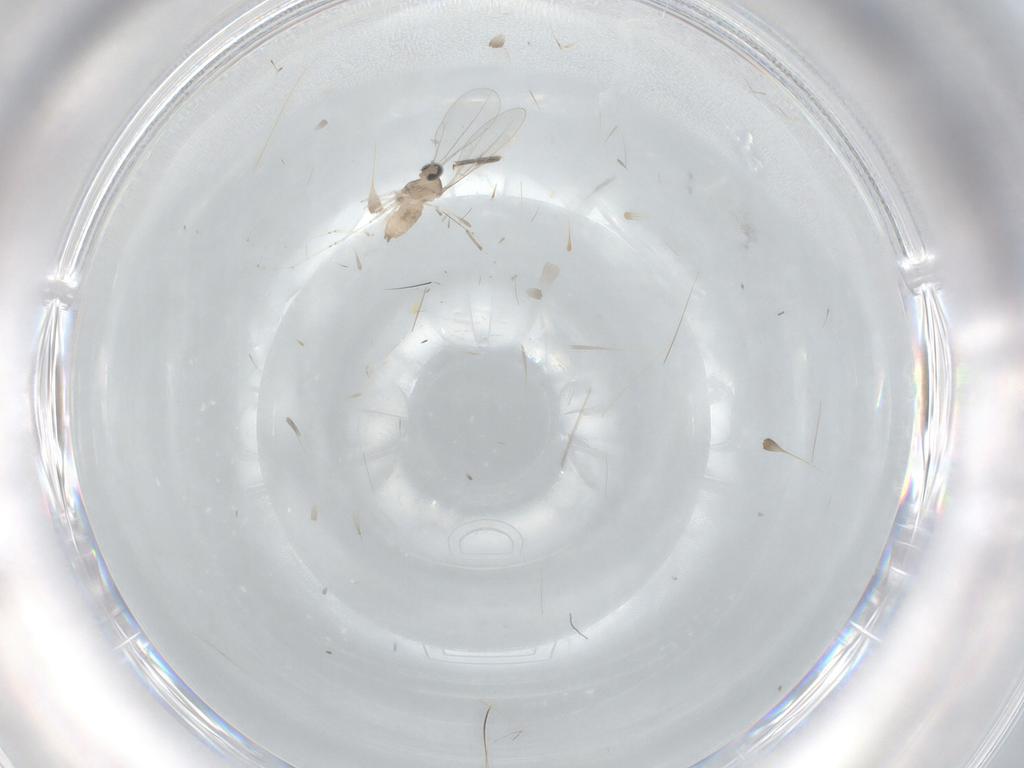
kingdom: Animalia
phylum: Arthropoda
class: Insecta
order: Diptera
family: Cecidomyiidae
